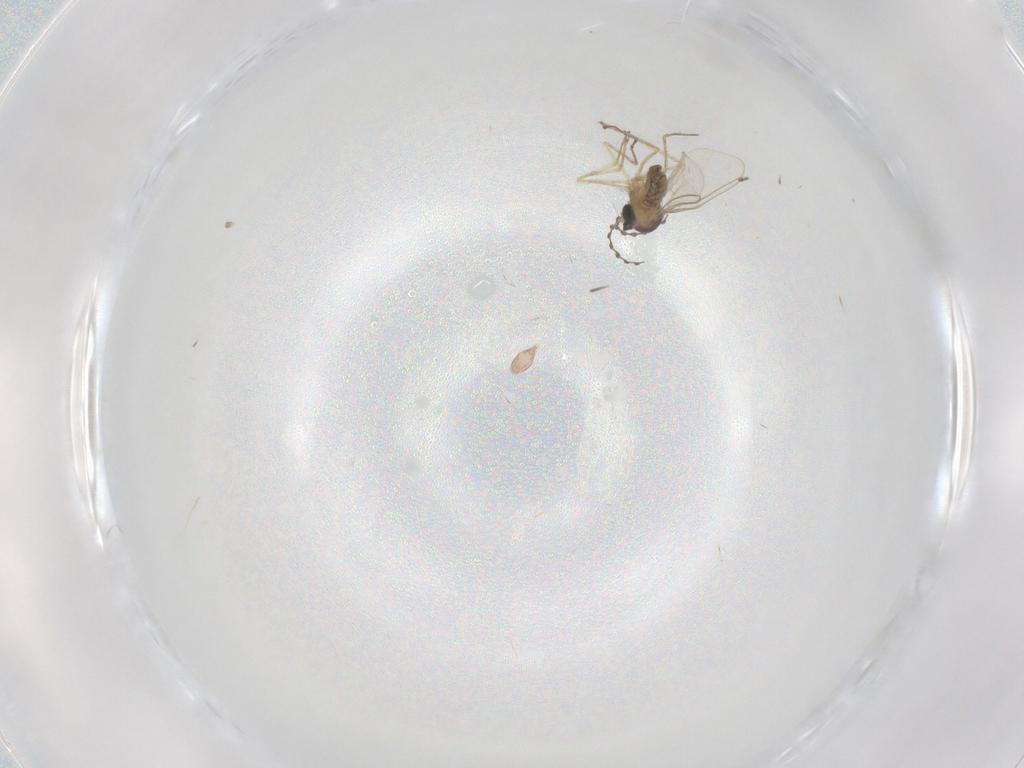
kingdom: Animalia
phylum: Arthropoda
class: Insecta
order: Diptera
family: Cecidomyiidae
